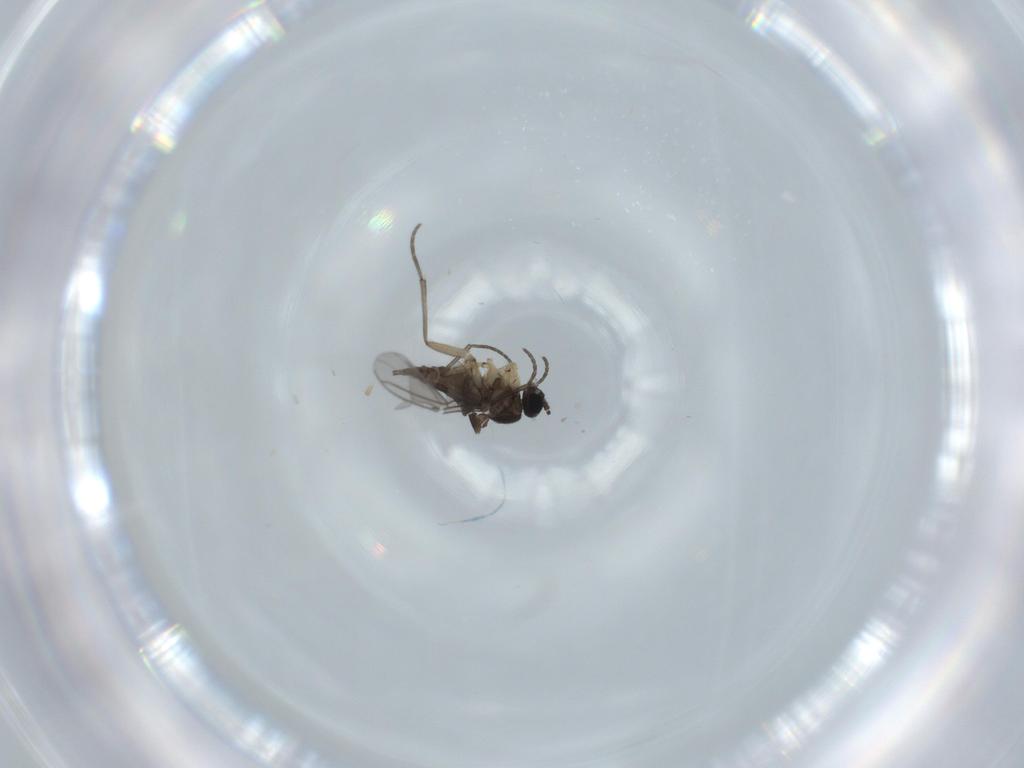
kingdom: Animalia
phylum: Arthropoda
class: Insecta
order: Diptera
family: Sciaridae
